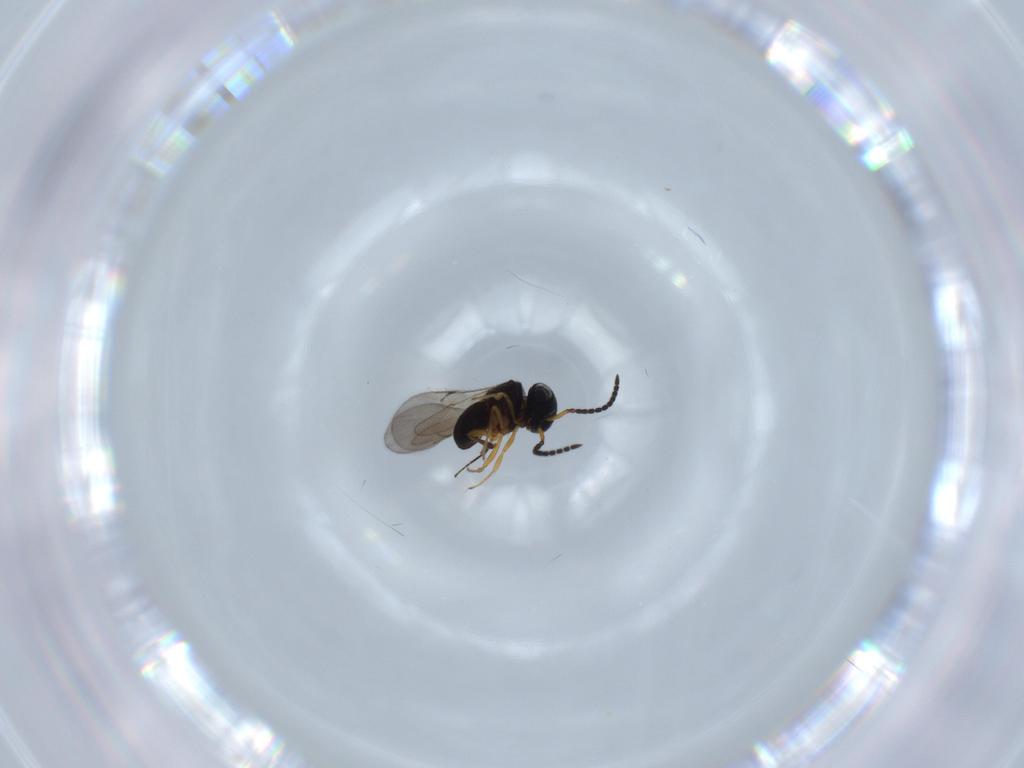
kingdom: Animalia
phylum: Arthropoda
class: Insecta
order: Hymenoptera
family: Scelionidae
